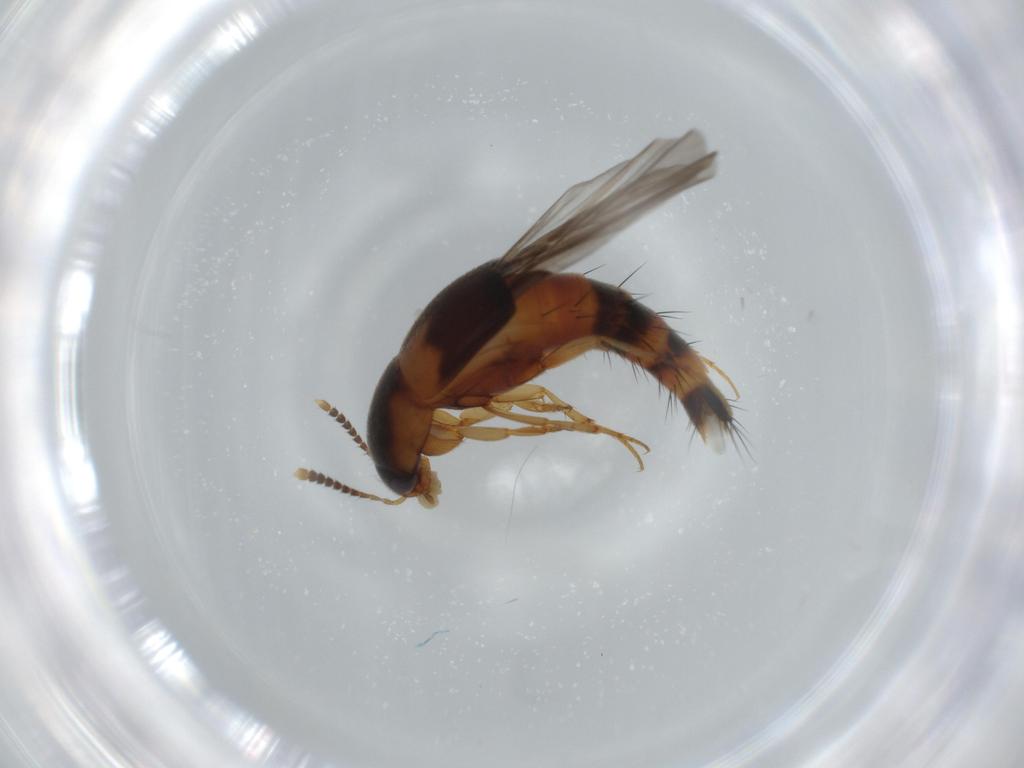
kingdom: Animalia
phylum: Arthropoda
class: Insecta
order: Coleoptera
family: Staphylinidae
